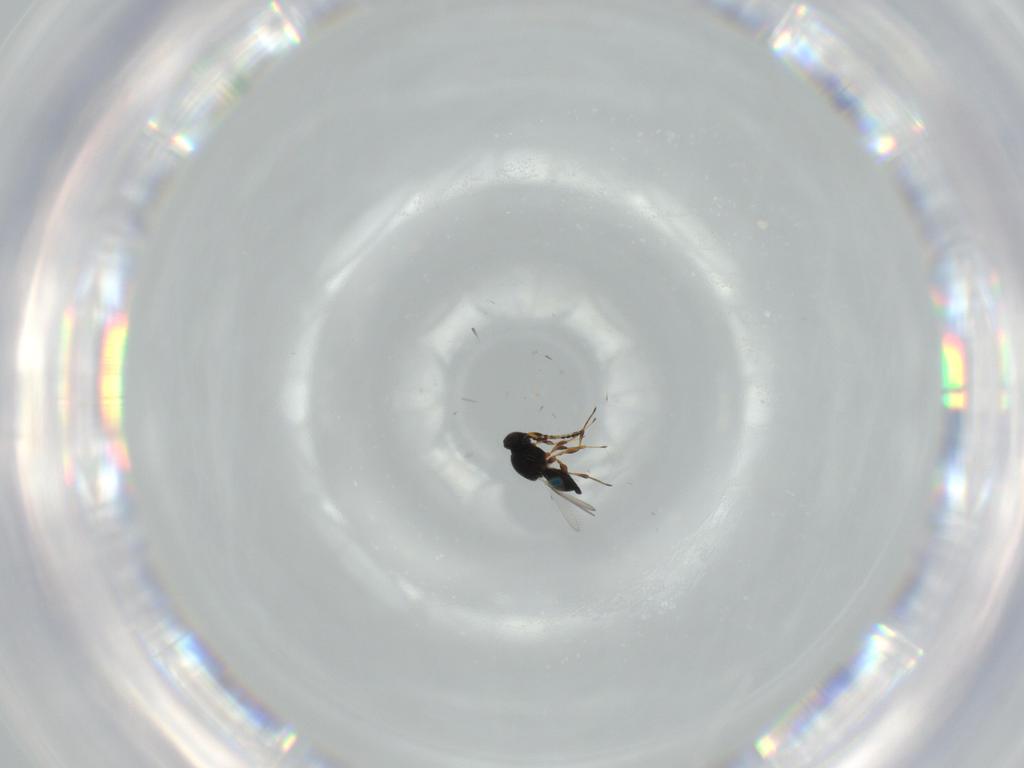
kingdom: Animalia
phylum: Arthropoda
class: Insecta
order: Hymenoptera
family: Platygastridae
